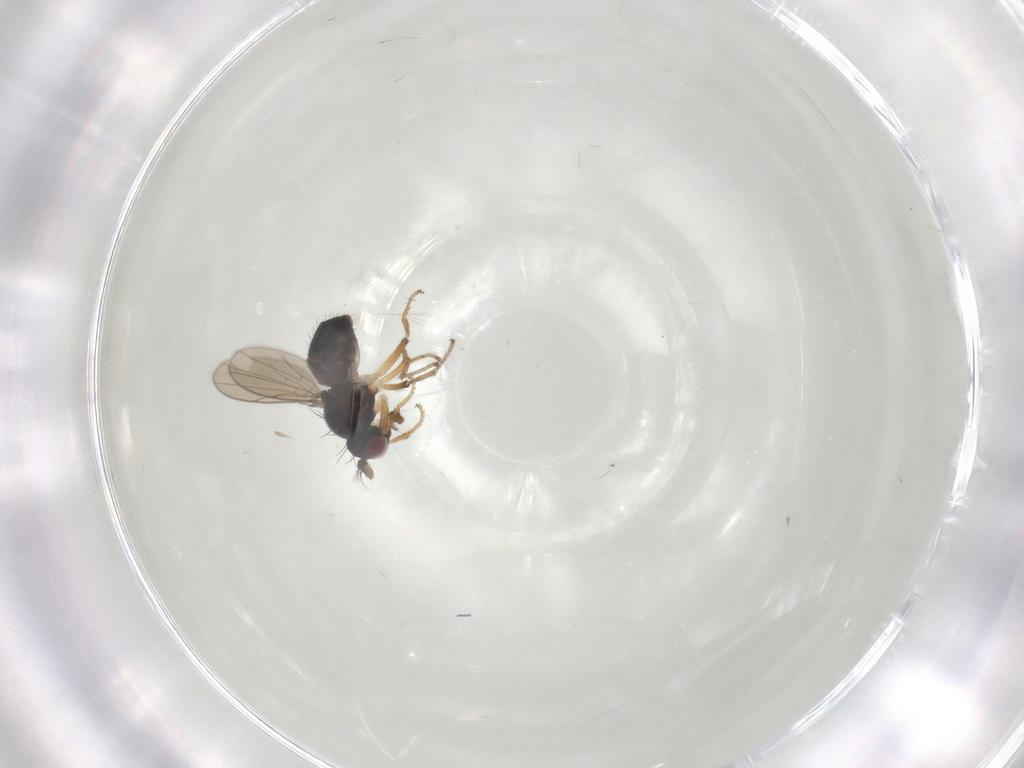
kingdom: Animalia
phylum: Arthropoda
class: Insecta
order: Diptera
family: Ephydridae
